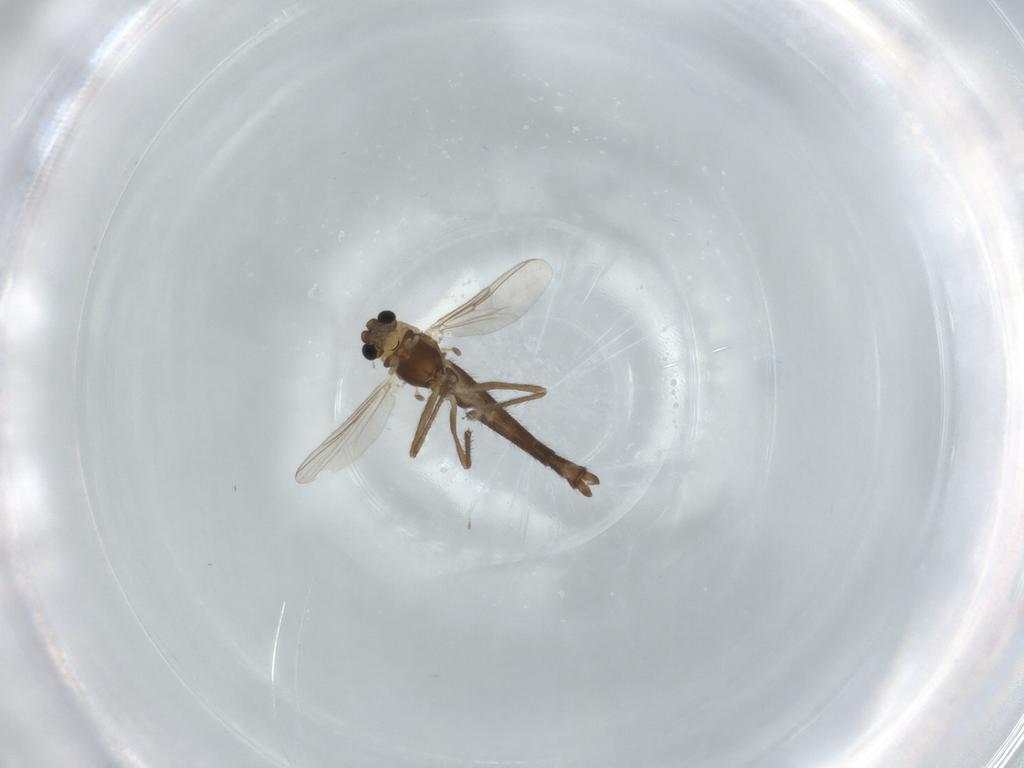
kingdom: Animalia
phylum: Arthropoda
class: Insecta
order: Diptera
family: Chironomidae
